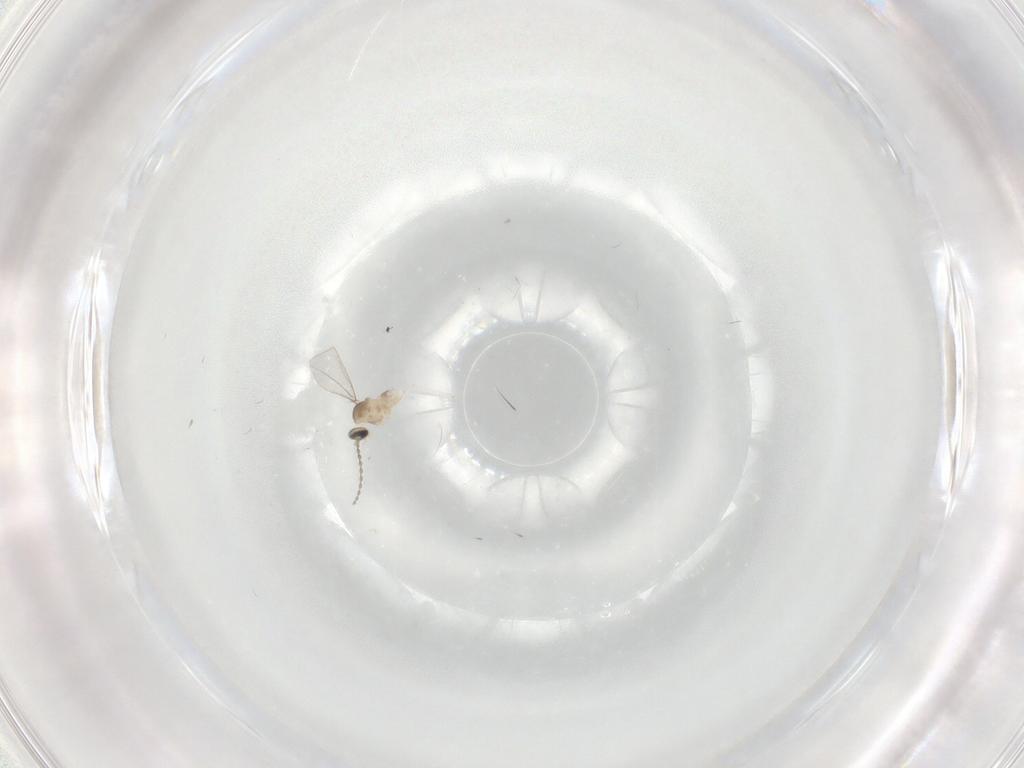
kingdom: Animalia
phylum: Arthropoda
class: Insecta
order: Diptera
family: Cecidomyiidae
